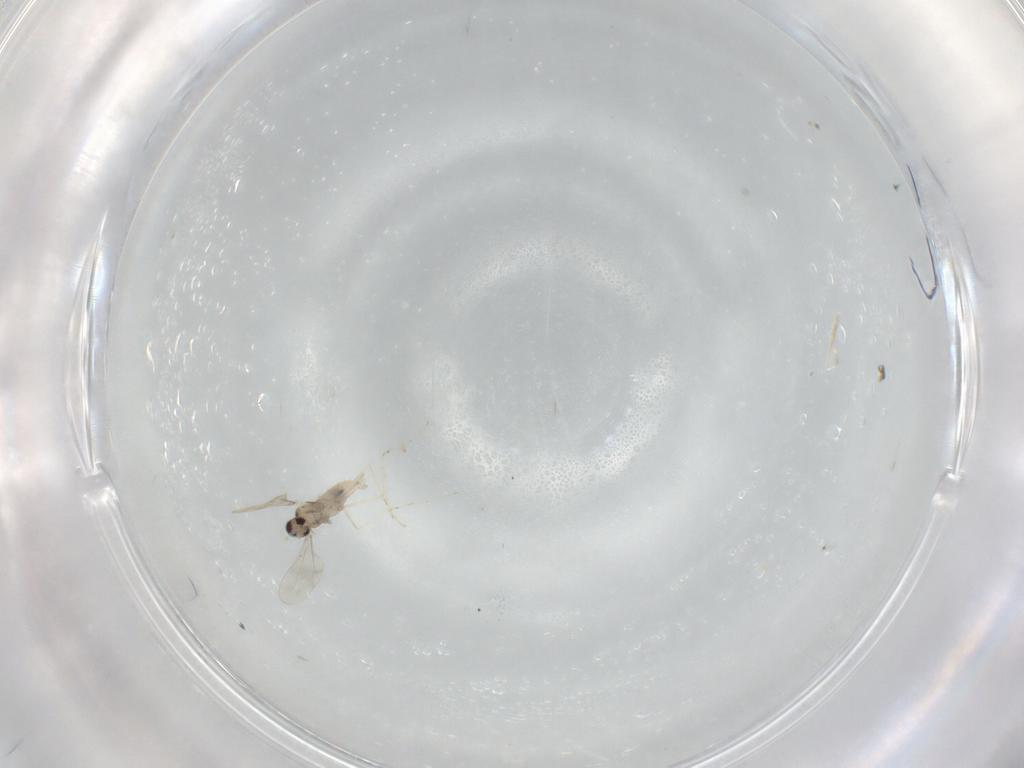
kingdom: Animalia
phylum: Arthropoda
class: Insecta
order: Diptera
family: Cecidomyiidae
